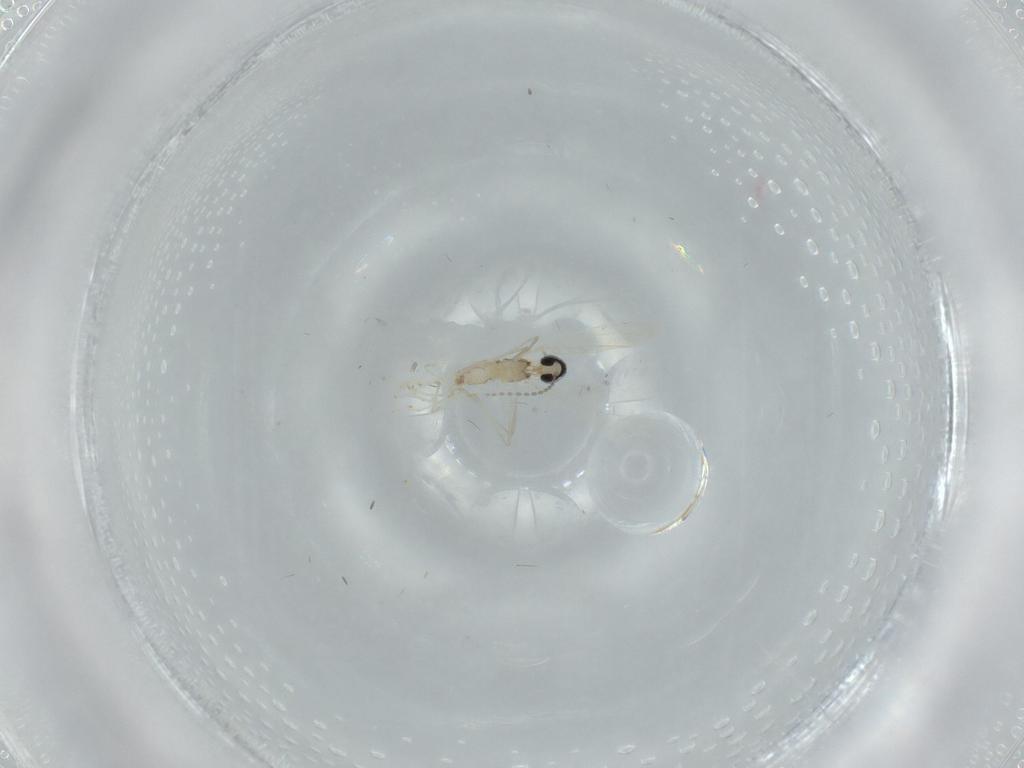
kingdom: Animalia
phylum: Arthropoda
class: Insecta
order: Diptera
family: Cecidomyiidae
